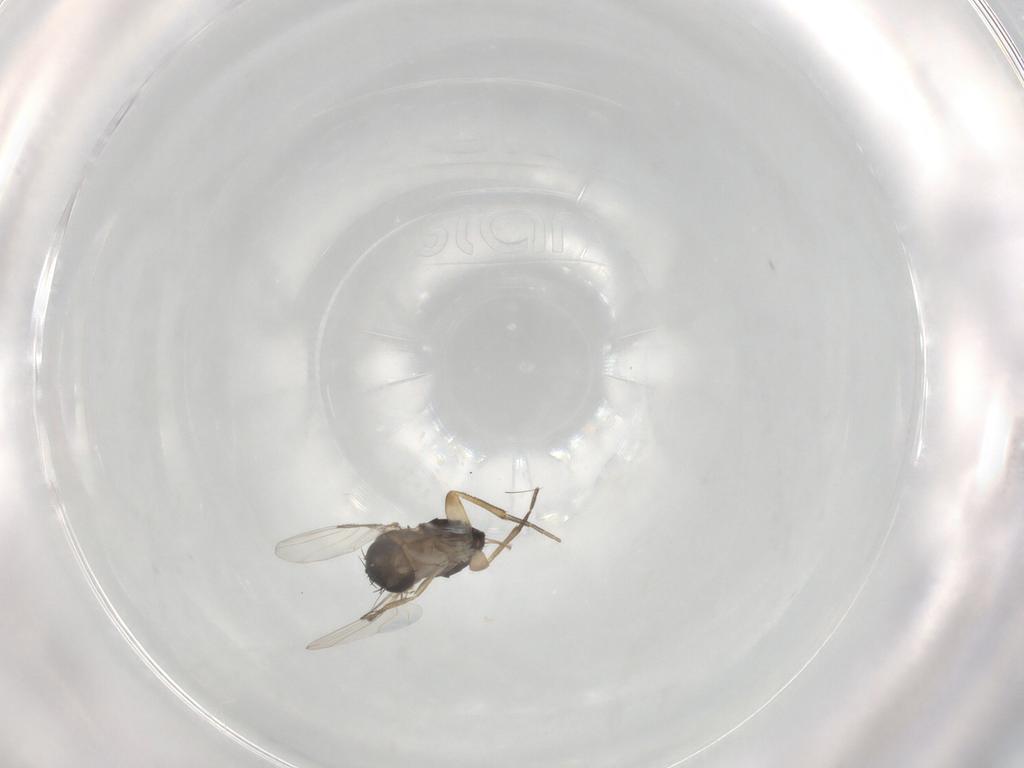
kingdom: Animalia
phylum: Arthropoda
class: Insecta
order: Diptera
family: Phoridae
